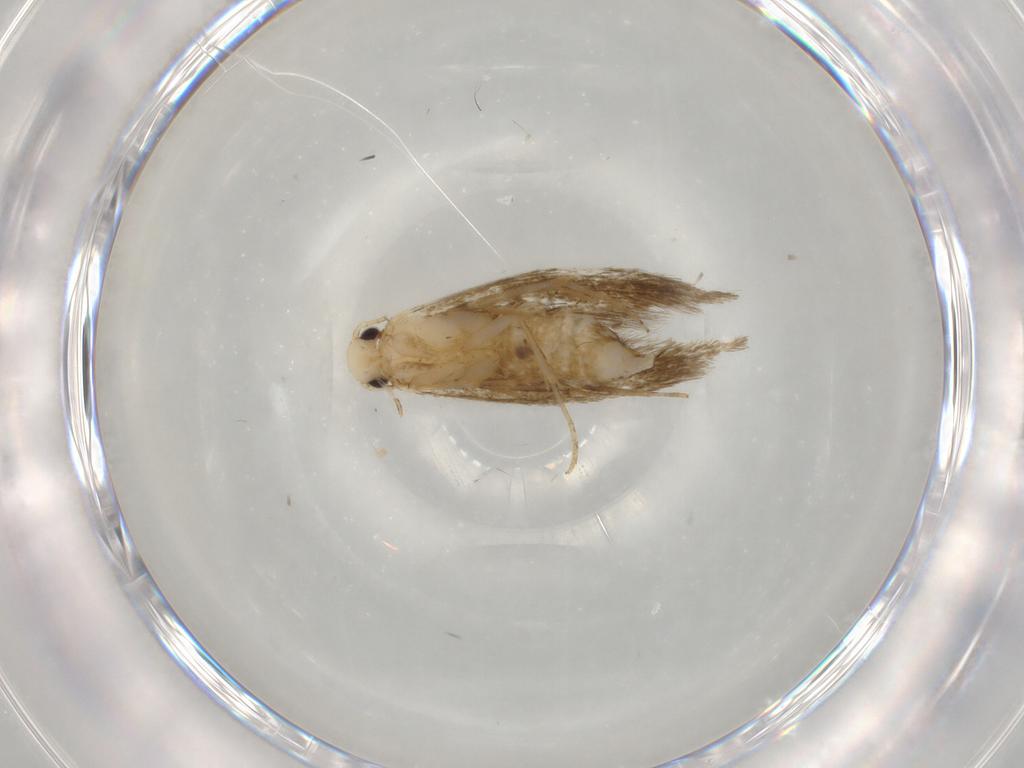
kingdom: Animalia
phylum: Arthropoda
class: Insecta
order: Lepidoptera
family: Tineidae
